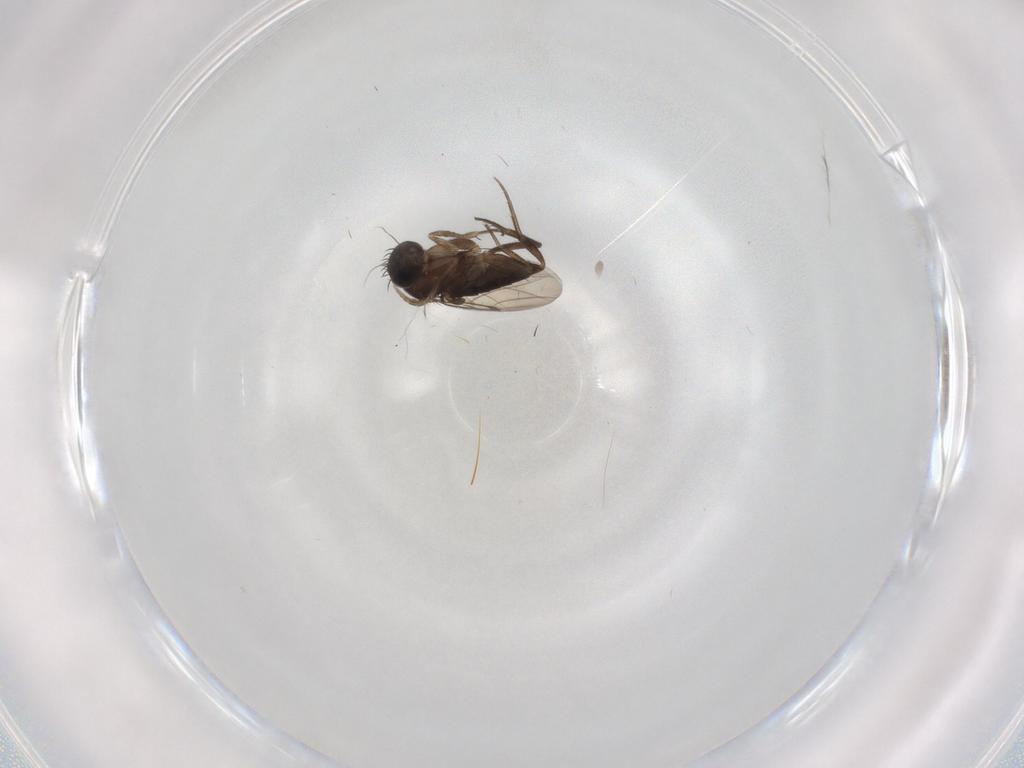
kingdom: Animalia
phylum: Arthropoda
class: Insecta
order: Diptera
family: Phoridae
